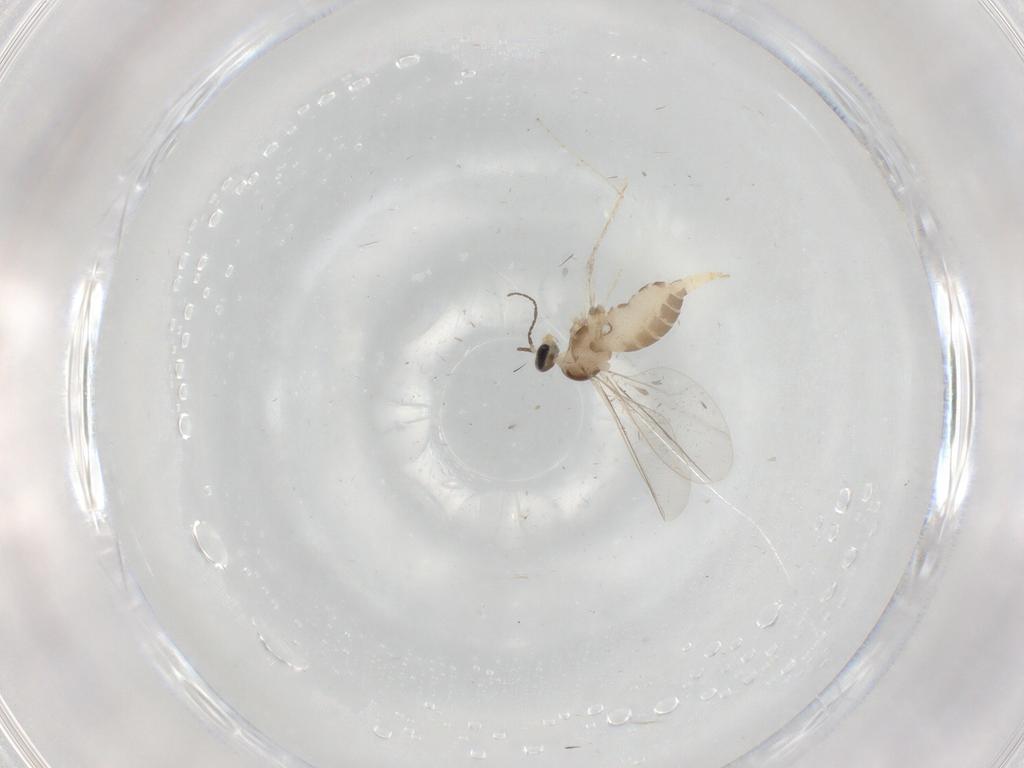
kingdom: Animalia
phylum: Arthropoda
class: Insecta
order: Diptera
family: Cecidomyiidae
